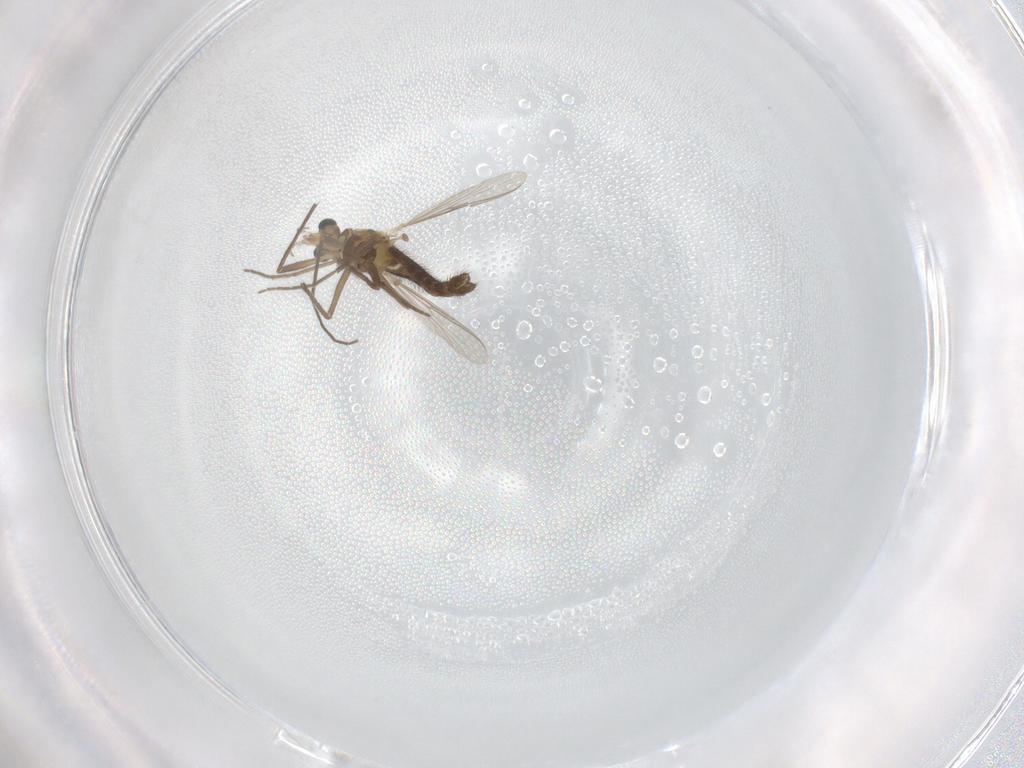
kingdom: Animalia
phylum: Arthropoda
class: Insecta
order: Diptera
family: Chironomidae
